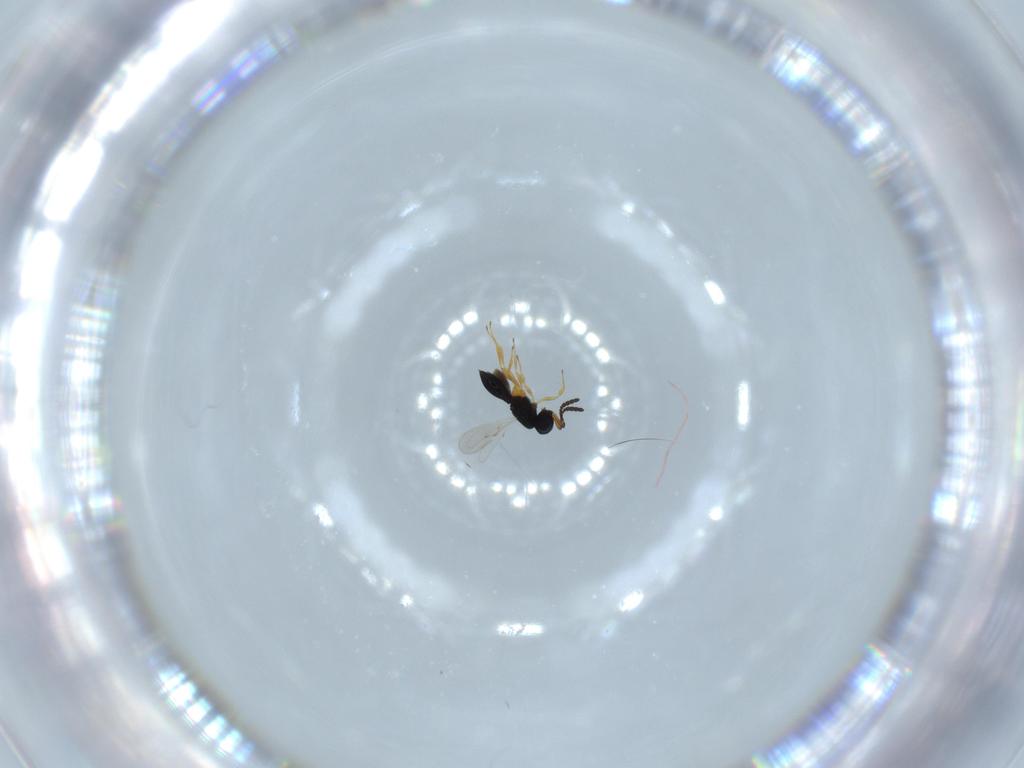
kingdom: Animalia
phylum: Arthropoda
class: Insecta
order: Hymenoptera
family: Scelionidae
